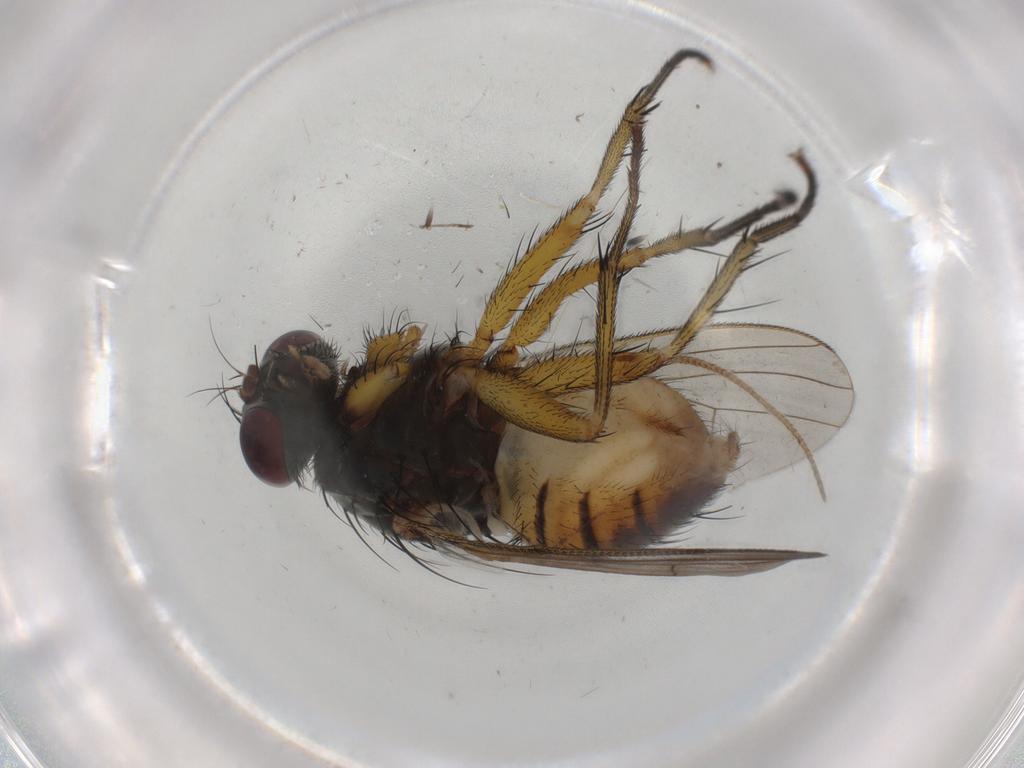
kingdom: Animalia
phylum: Arthropoda
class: Insecta
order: Diptera
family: Muscidae
